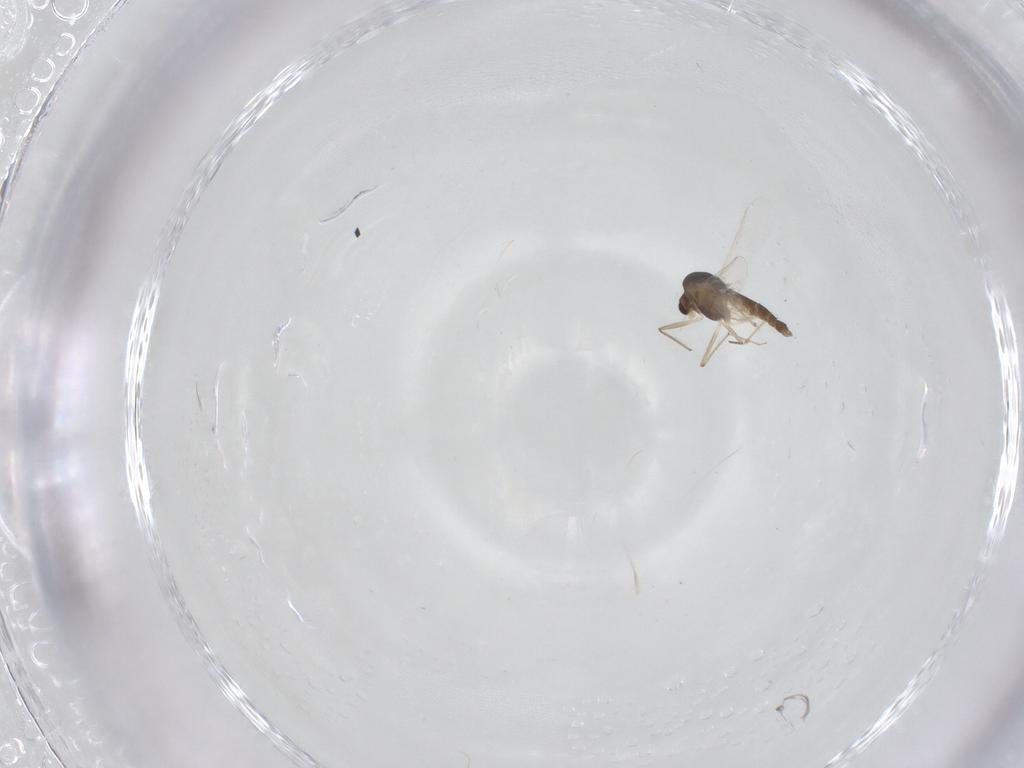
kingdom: Animalia
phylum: Arthropoda
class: Insecta
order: Diptera
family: Chironomidae
